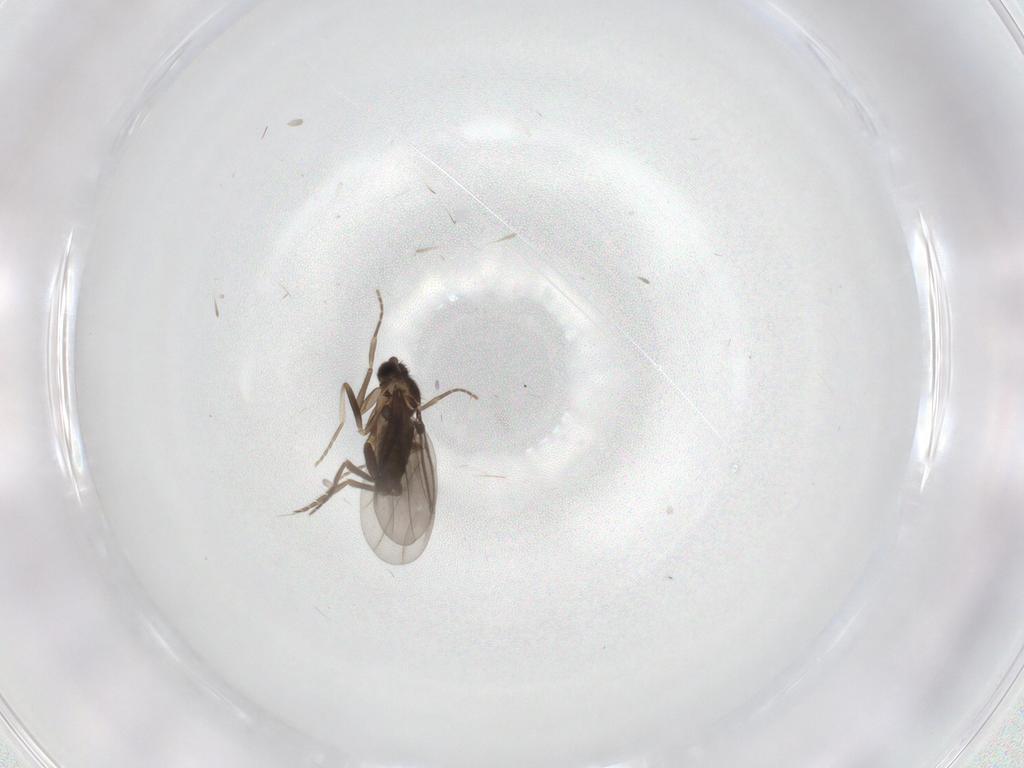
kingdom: Animalia
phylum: Arthropoda
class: Insecta
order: Diptera
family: Phoridae
